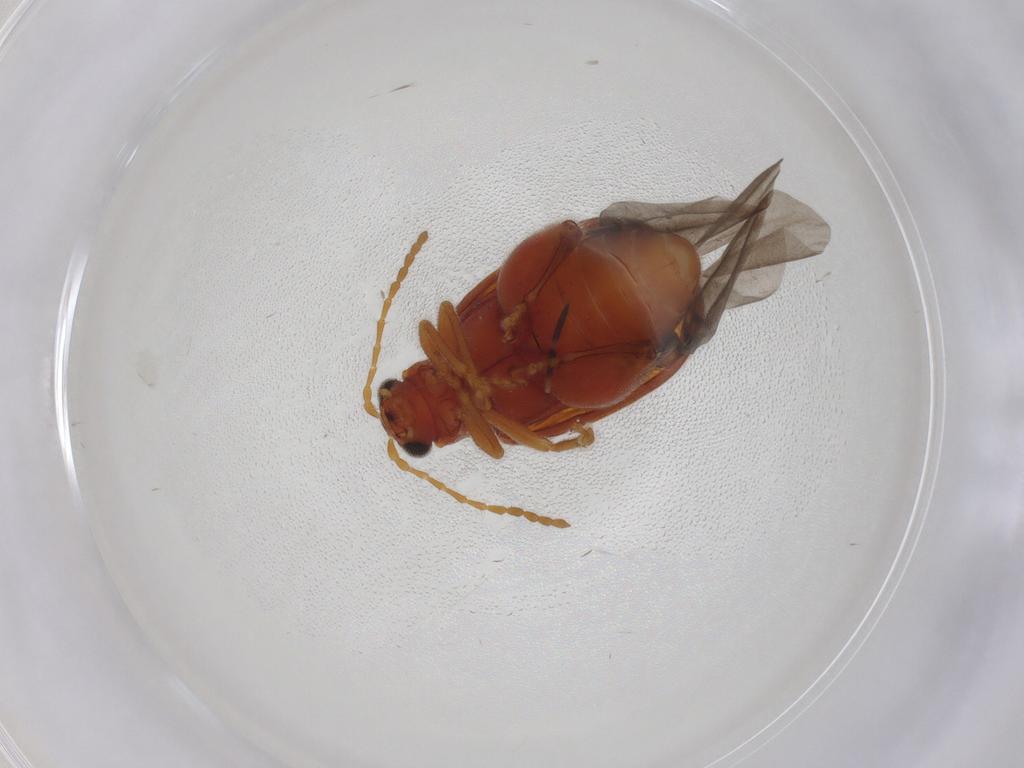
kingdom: Animalia
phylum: Arthropoda
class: Insecta
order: Coleoptera
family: Chrysomelidae
